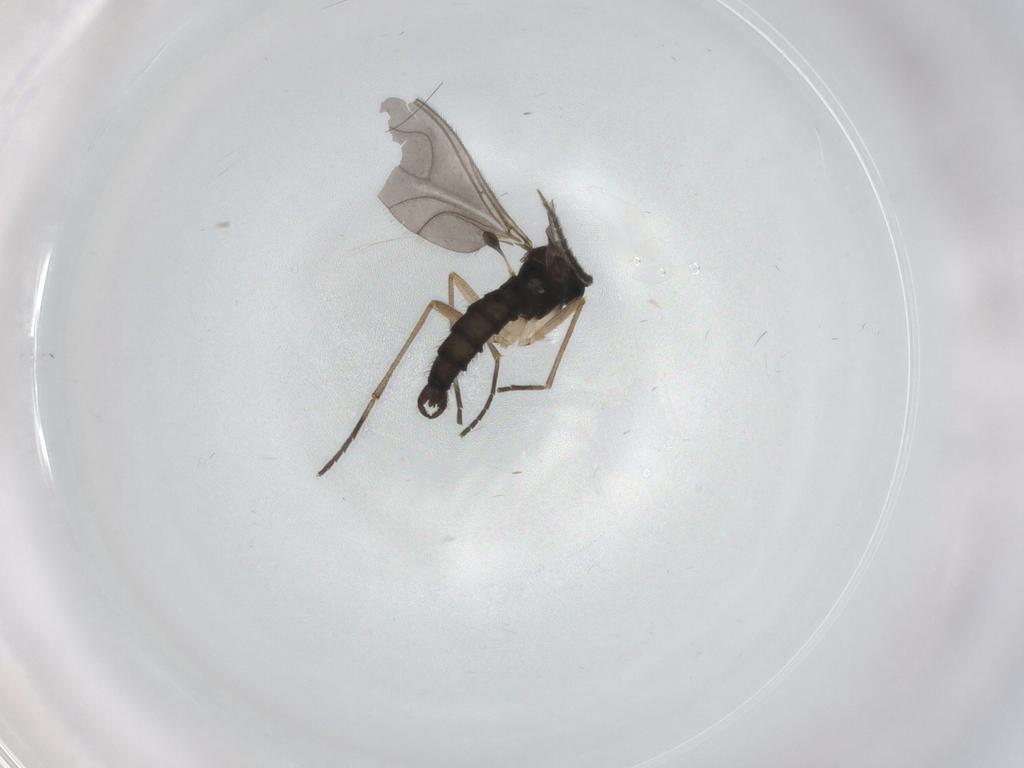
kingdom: Animalia
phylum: Arthropoda
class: Insecta
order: Diptera
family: Sciaridae
